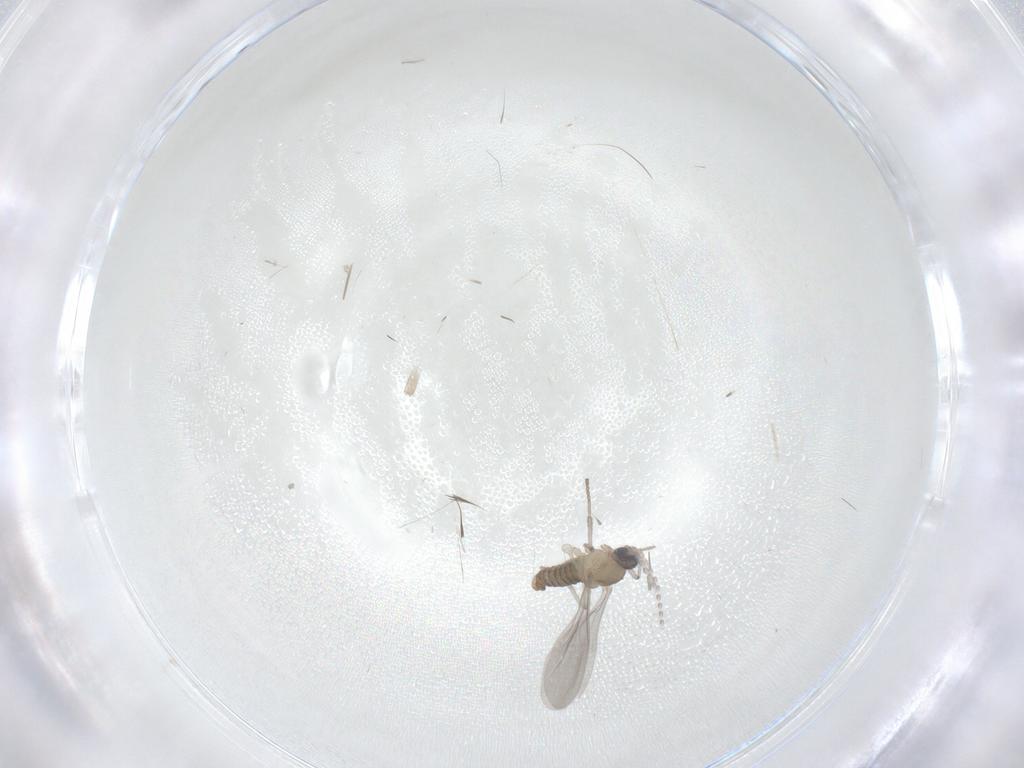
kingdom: Animalia
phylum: Arthropoda
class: Insecta
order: Diptera
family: Cecidomyiidae
